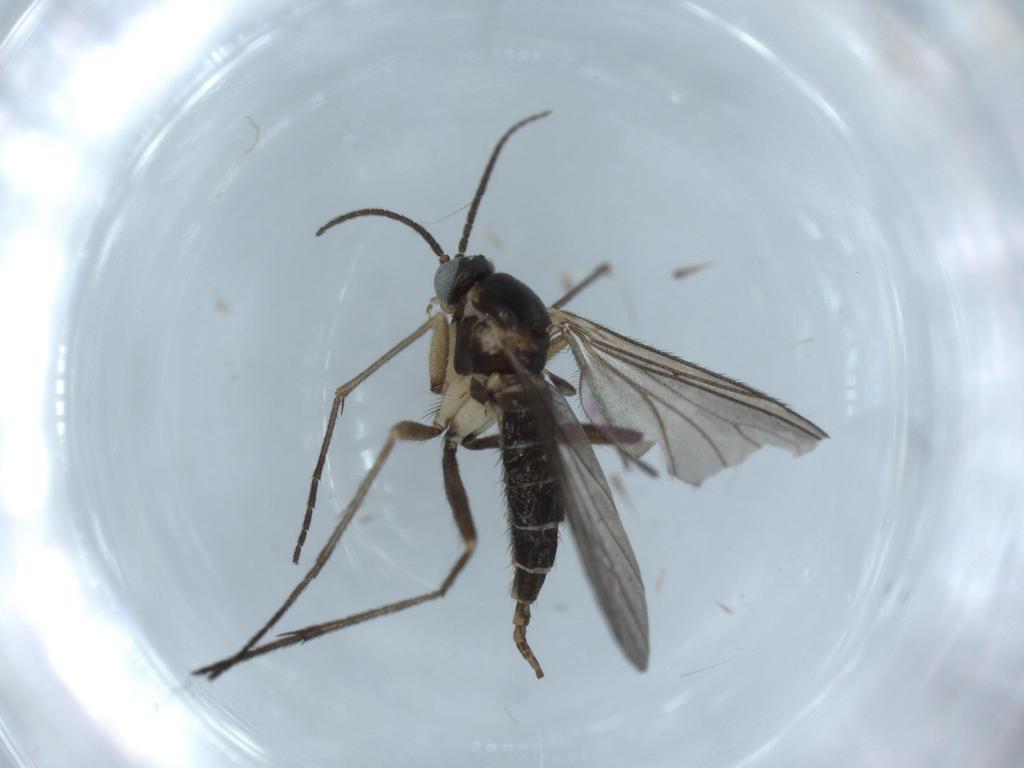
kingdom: Animalia
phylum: Arthropoda
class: Insecta
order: Diptera
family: Sciaridae
